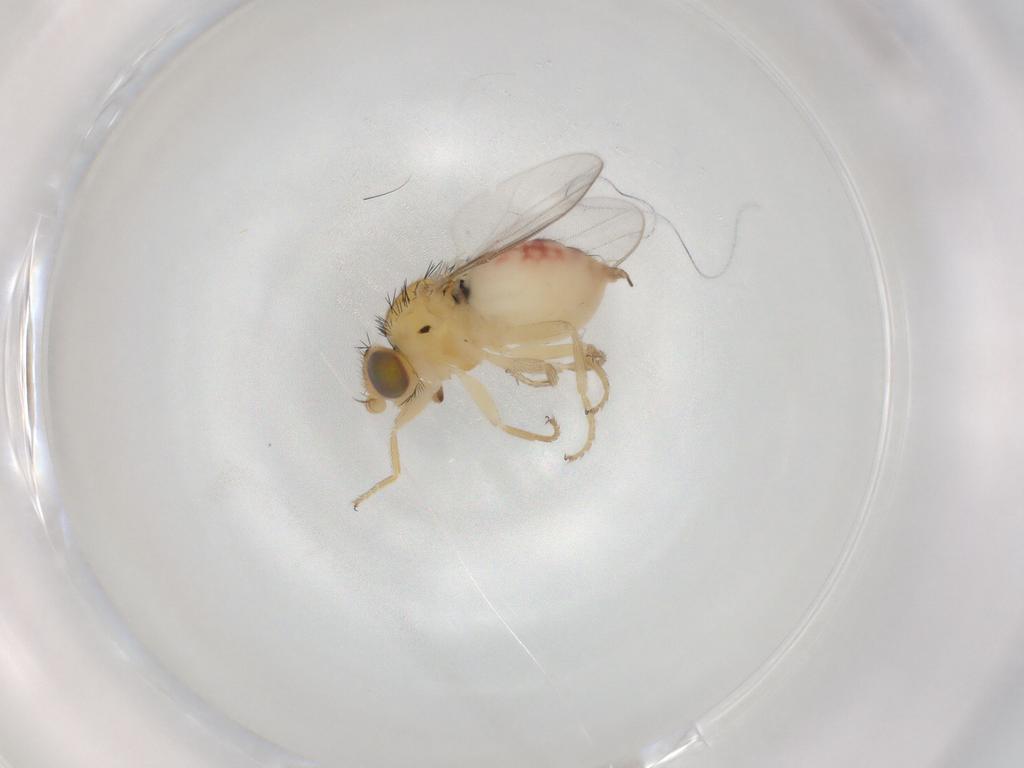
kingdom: Animalia
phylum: Arthropoda
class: Insecta
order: Diptera
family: Chloropidae
